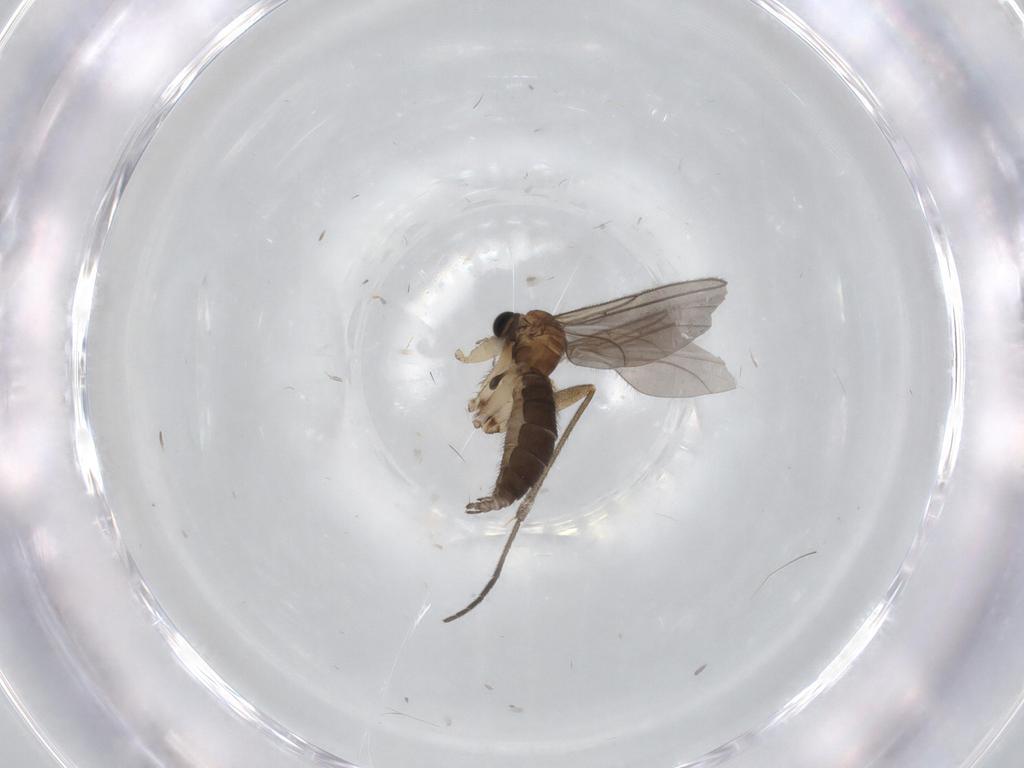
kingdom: Animalia
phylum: Arthropoda
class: Insecta
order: Diptera
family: Sciaridae
